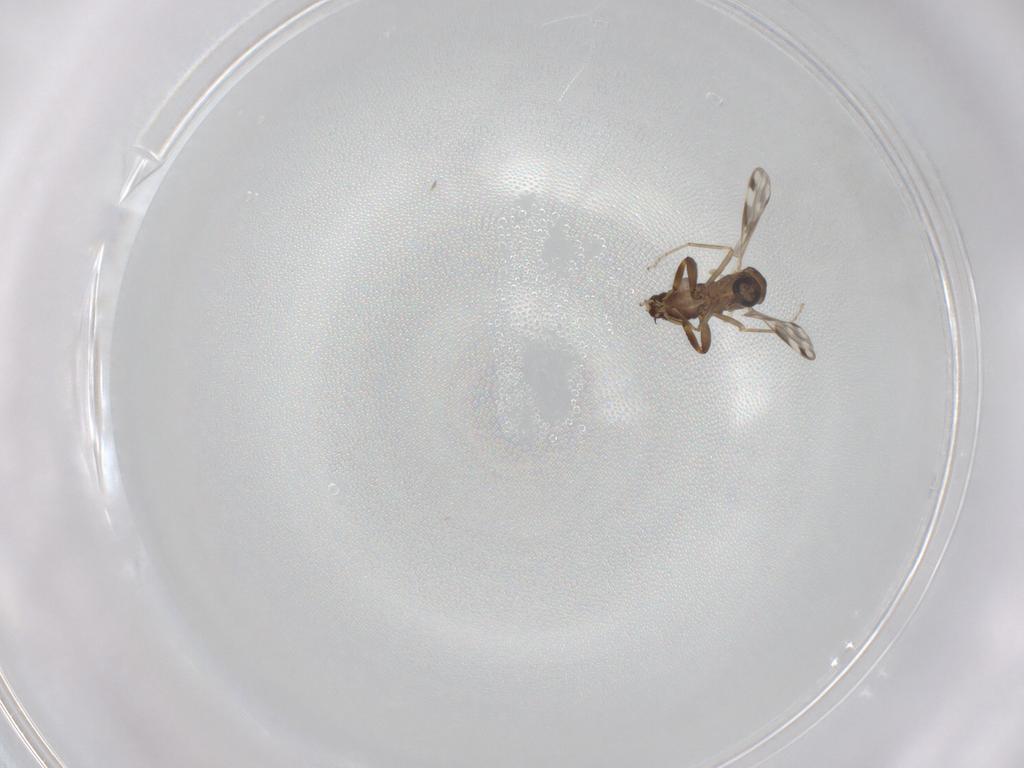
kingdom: Animalia
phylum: Arthropoda
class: Insecta
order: Diptera
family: Ceratopogonidae
